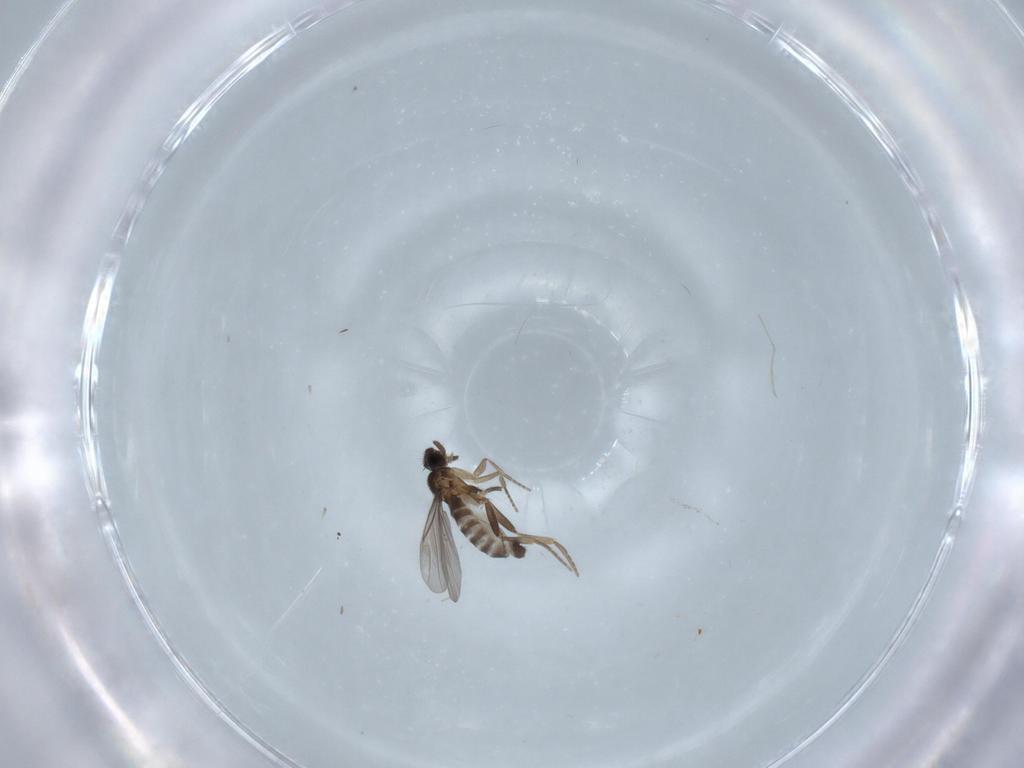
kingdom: Animalia
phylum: Arthropoda
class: Insecta
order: Diptera
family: Cecidomyiidae
